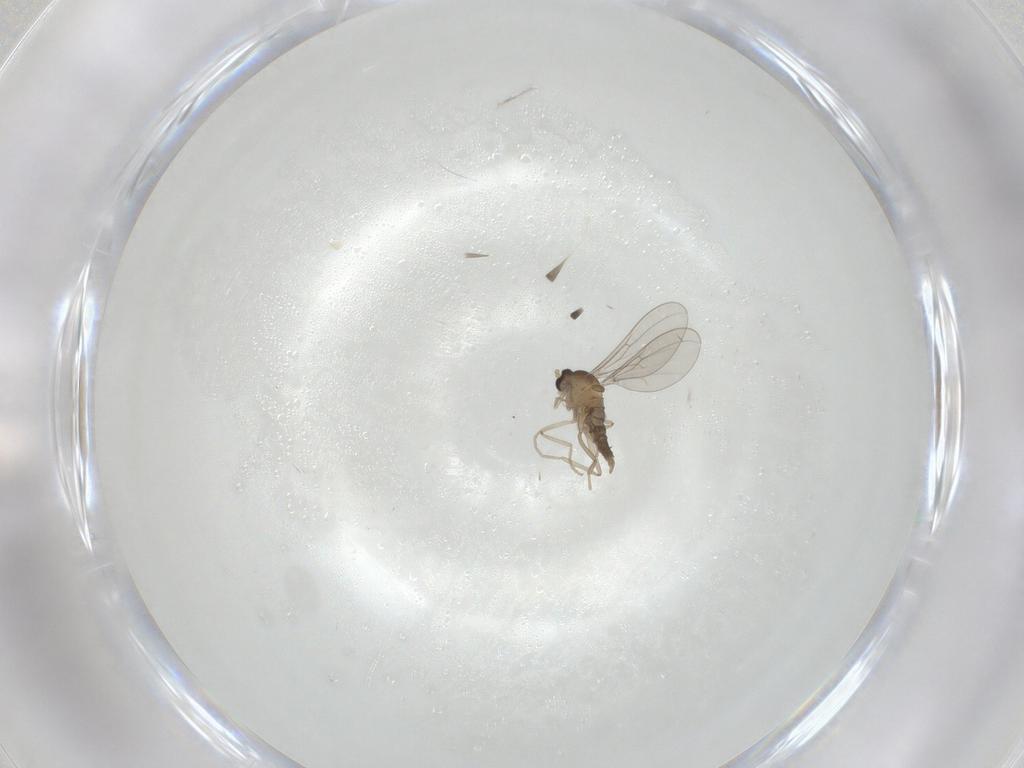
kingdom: Animalia
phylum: Arthropoda
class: Insecta
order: Diptera
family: Cecidomyiidae
